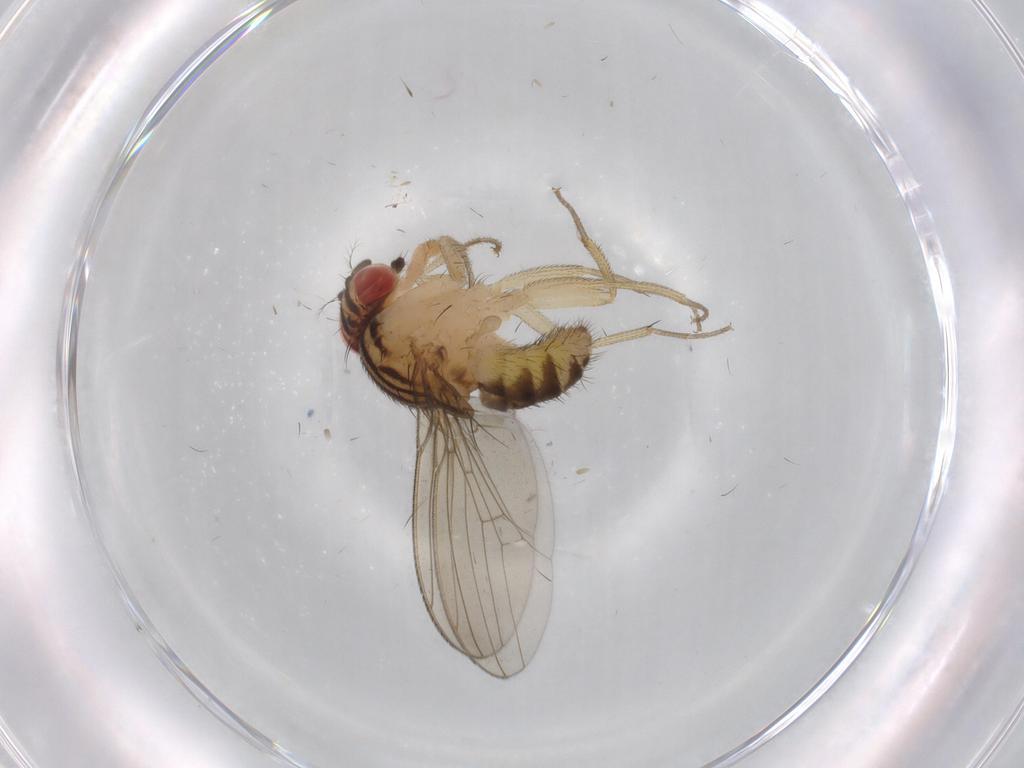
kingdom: Animalia
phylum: Arthropoda
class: Insecta
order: Diptera
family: Drosophilidae
